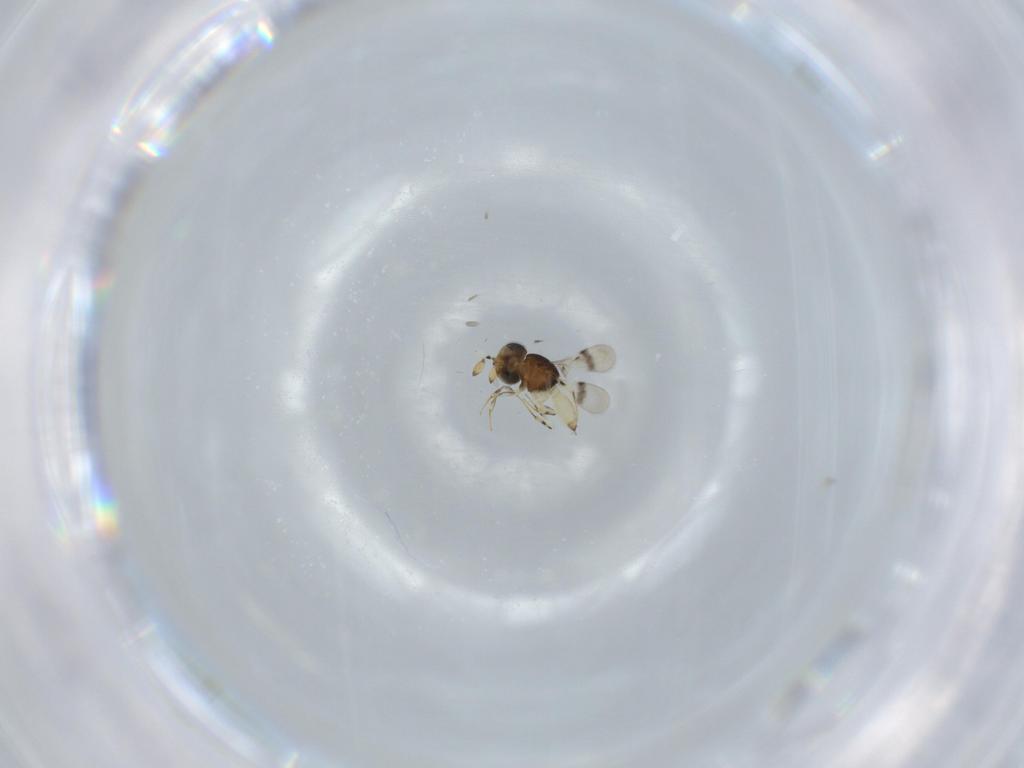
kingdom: Animalia
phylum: Arthropoda
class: Insecta
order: Hymenoptera
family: Scelionidae
